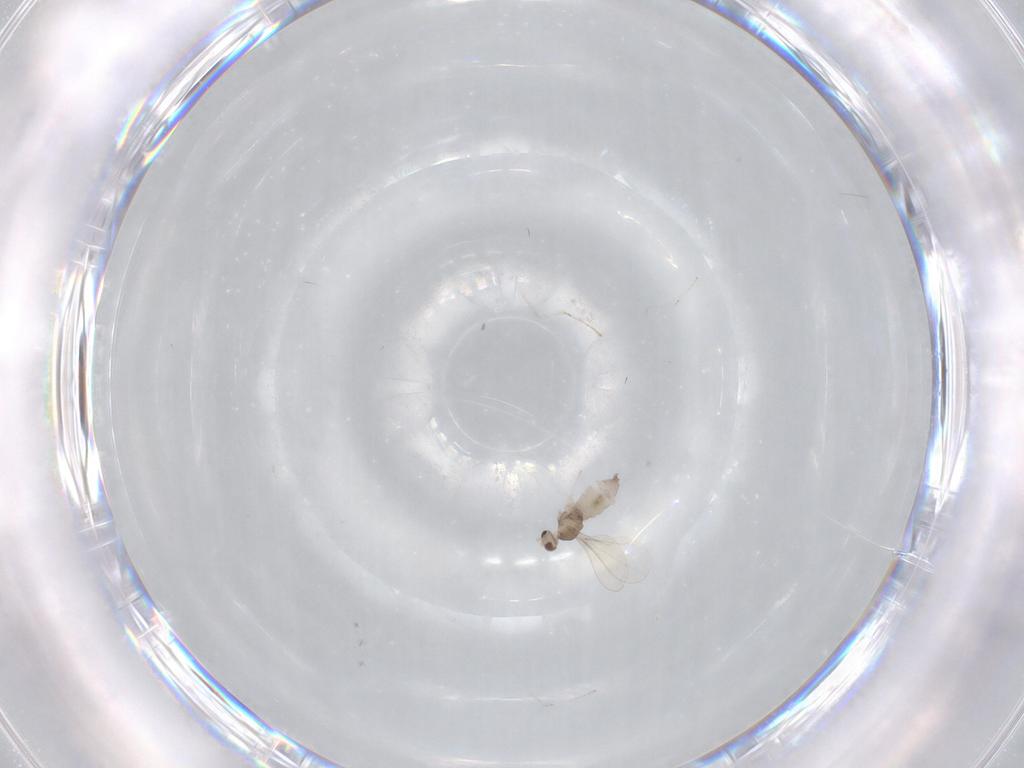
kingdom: Animalia
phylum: Arthropoda
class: Insecta
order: Diptera
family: Cecidomyiidae
